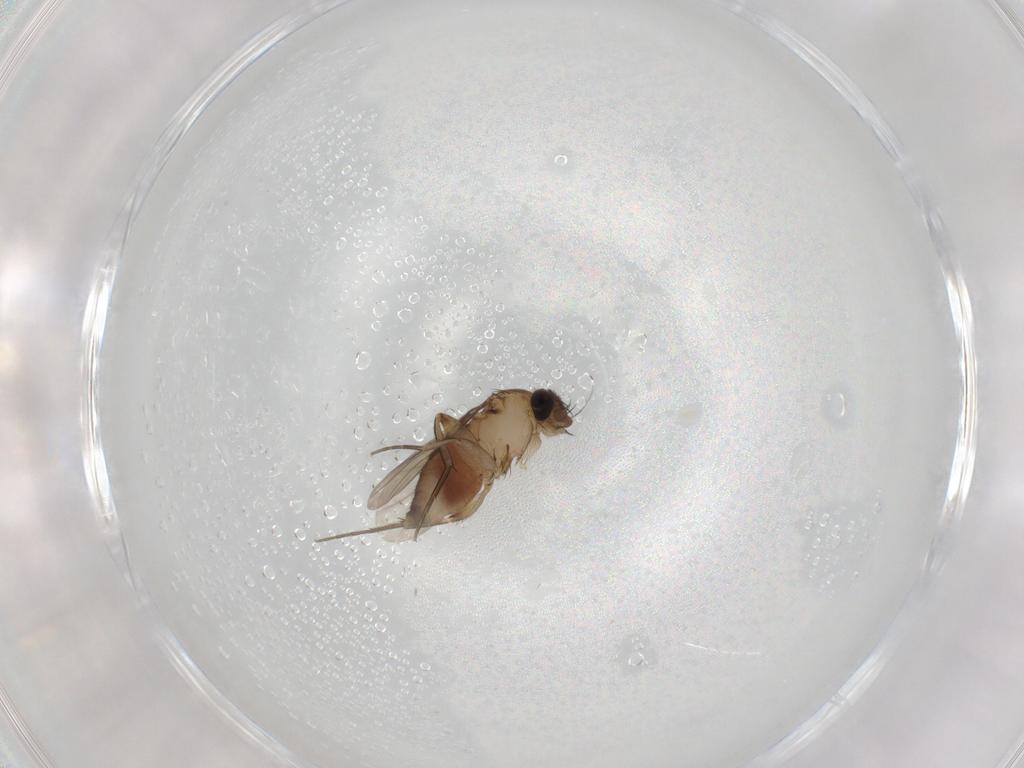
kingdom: Animalia
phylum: Arthropoda
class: Insecta
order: Diptera
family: Phoridae
